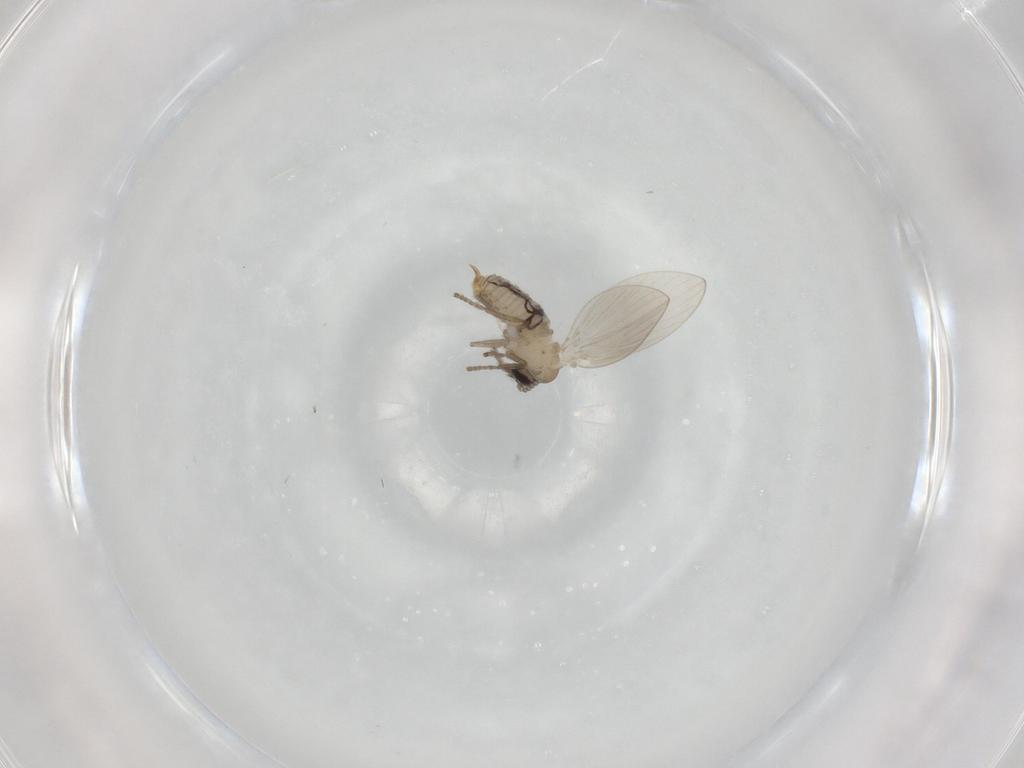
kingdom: Animalia
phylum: Arthropoda
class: Insecta
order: Diptera
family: Psychodidae
